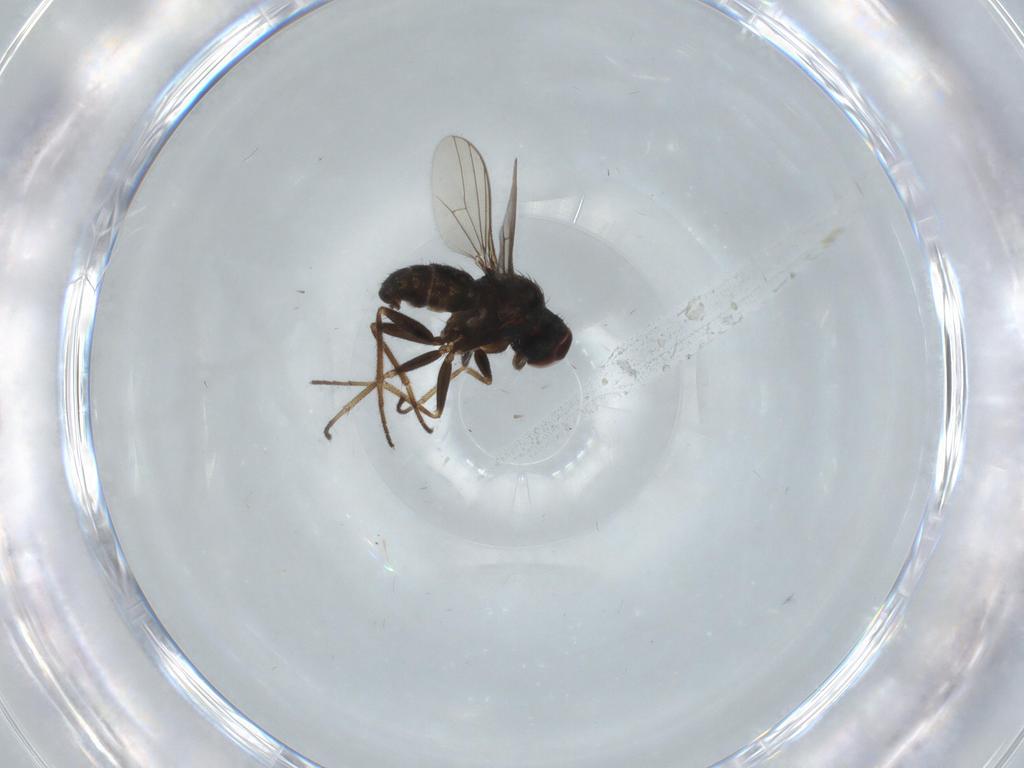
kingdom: Animalia
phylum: Arthropoda
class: Insecta
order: Diptera
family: Dolichopodidae
